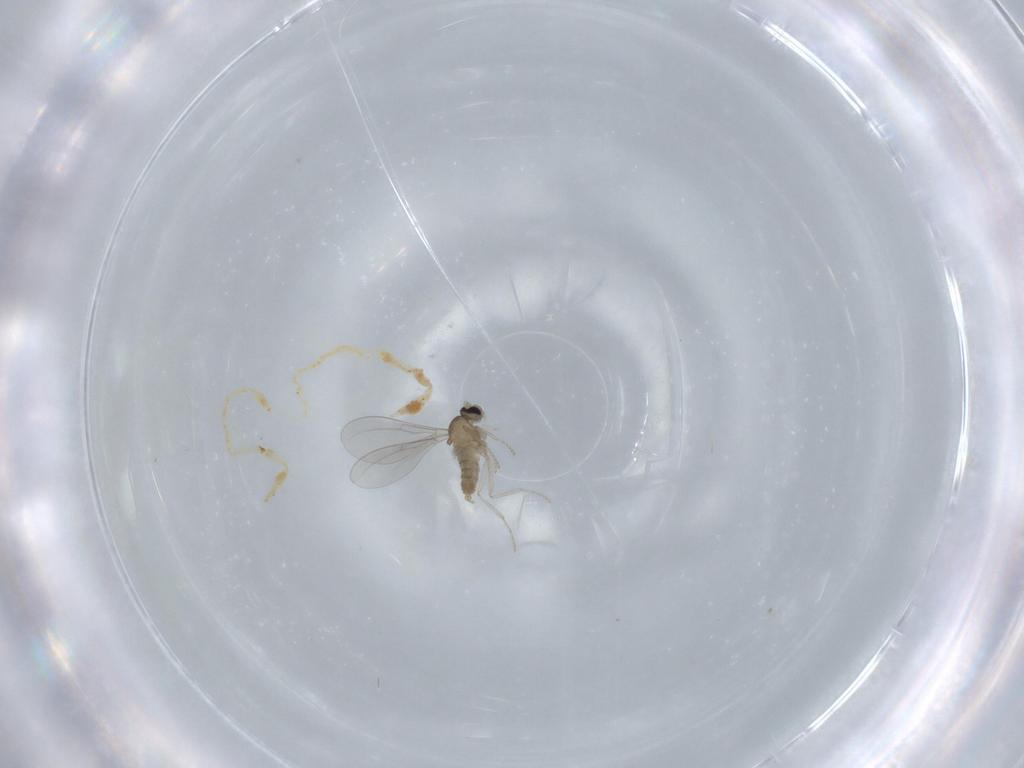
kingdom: Animalia
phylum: Arthropoda
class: Insecta
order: Diptera
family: Cecidomyiidae
